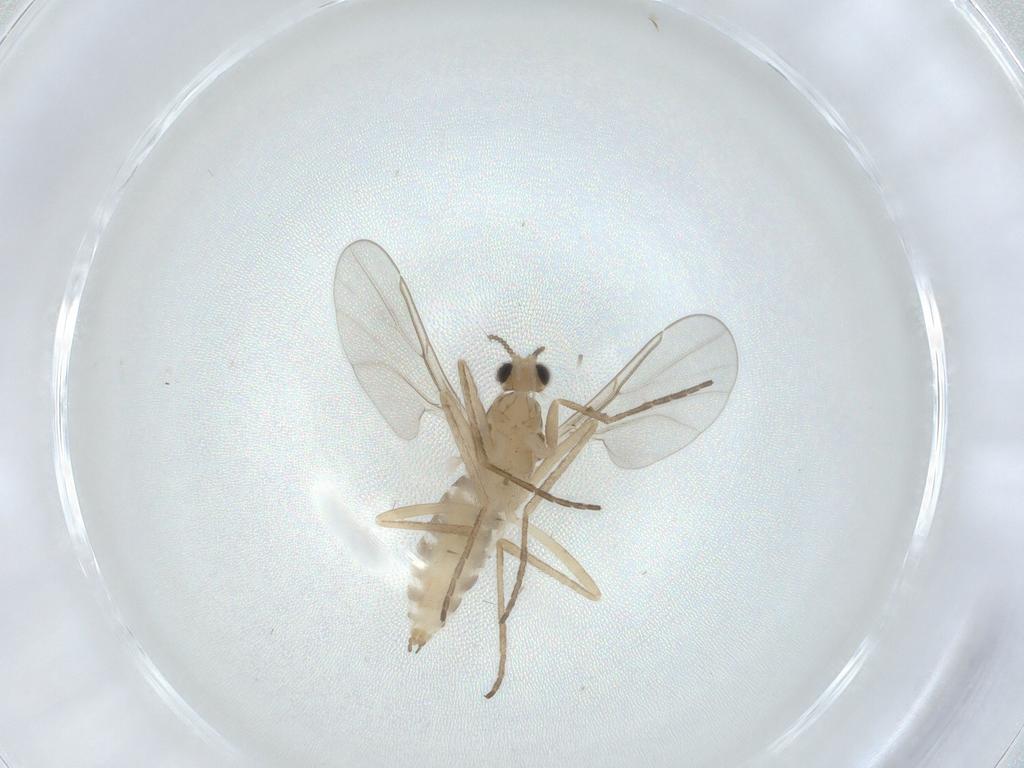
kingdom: Animalia
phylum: Arthropoda
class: Insecta
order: Diptera
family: Cecidomyiidae
